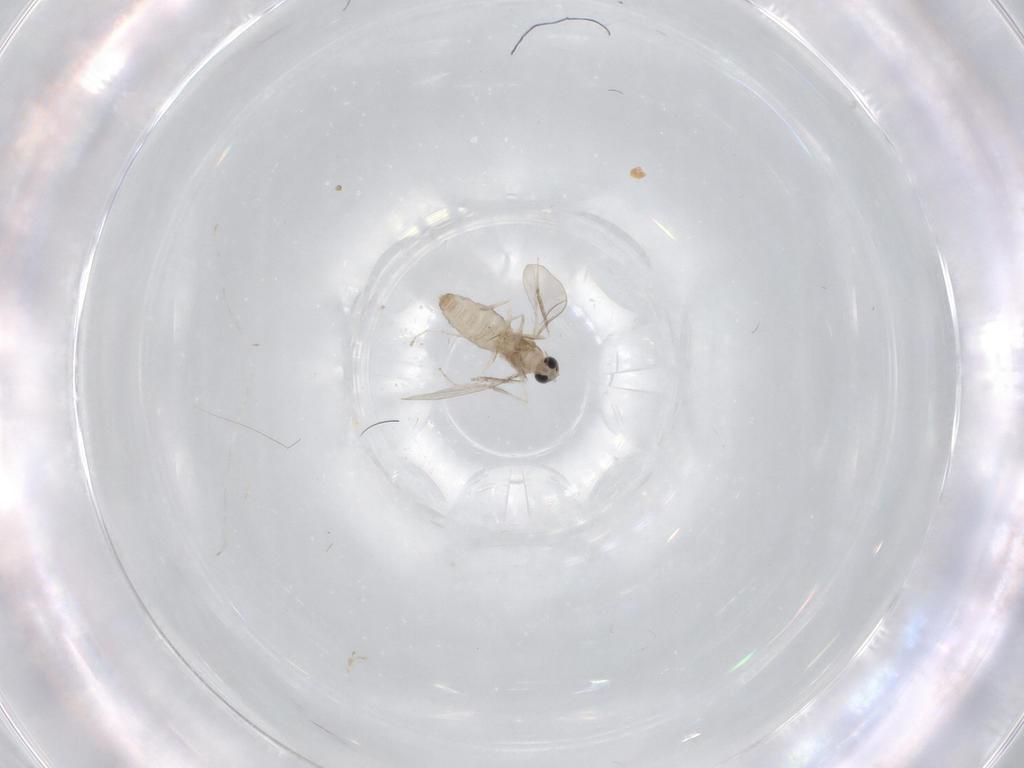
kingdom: Animalia
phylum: Arthropoda
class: Insecta
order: Diptera
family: Cecidomyiidae
